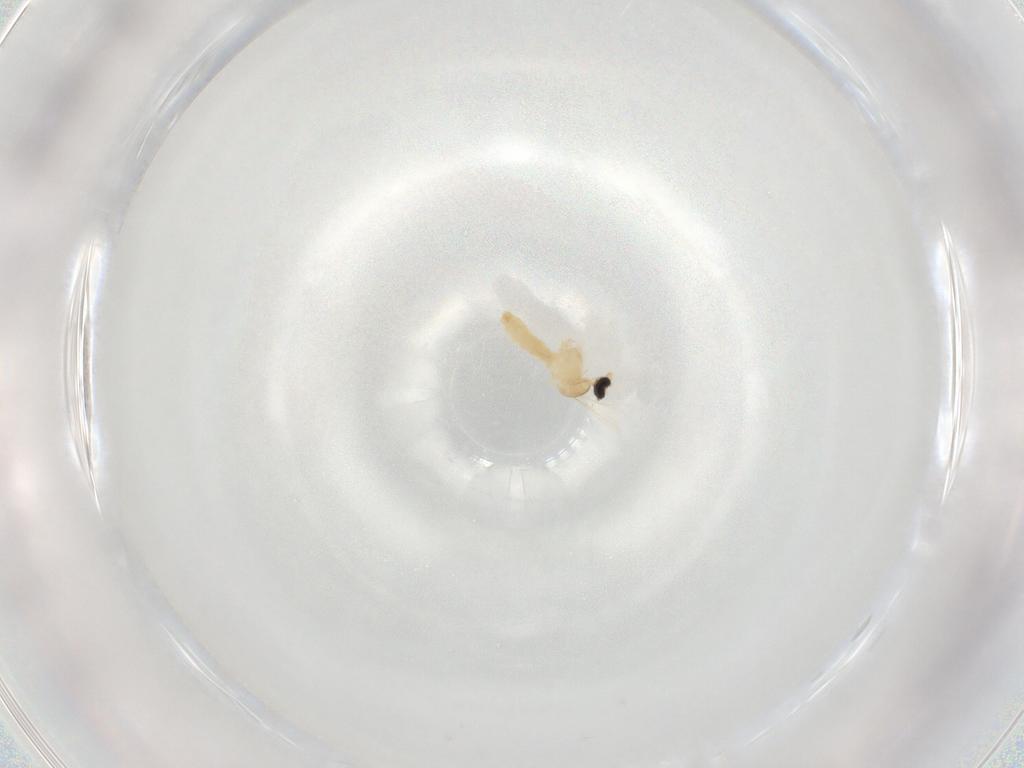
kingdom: Animalia
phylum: Arthropoda
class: Insecta
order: Diptera
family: Cecidomyiidae
